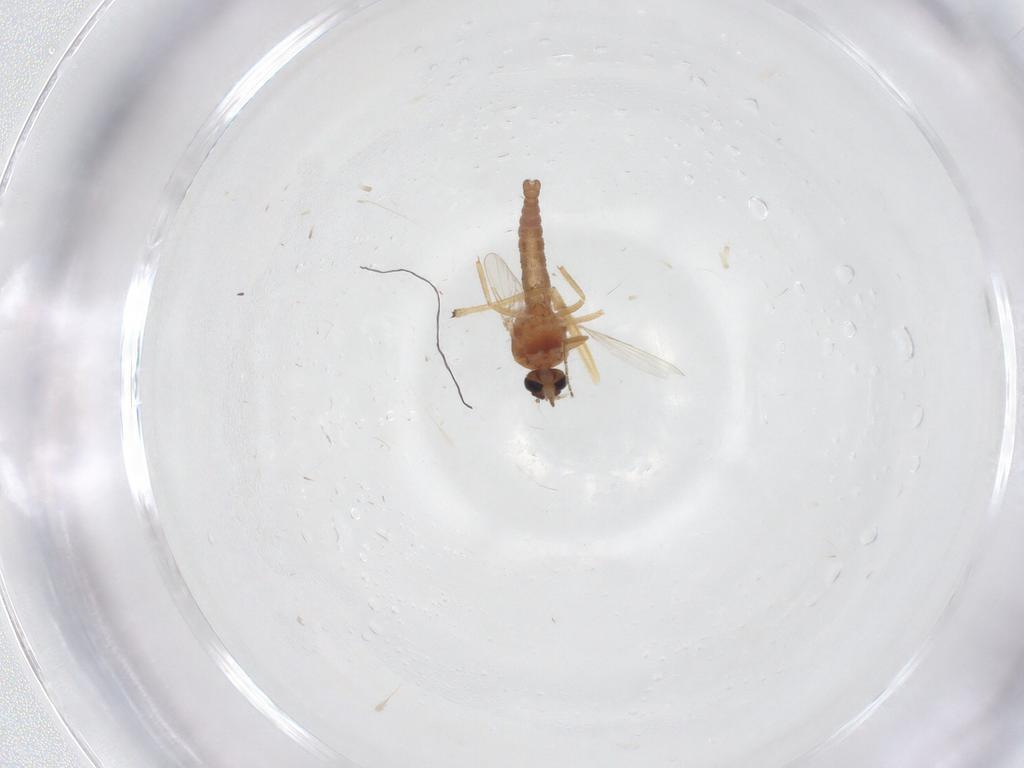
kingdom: Animalia
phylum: Arthropoda
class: Insecta
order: Diptera
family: Ceratopogonidae
